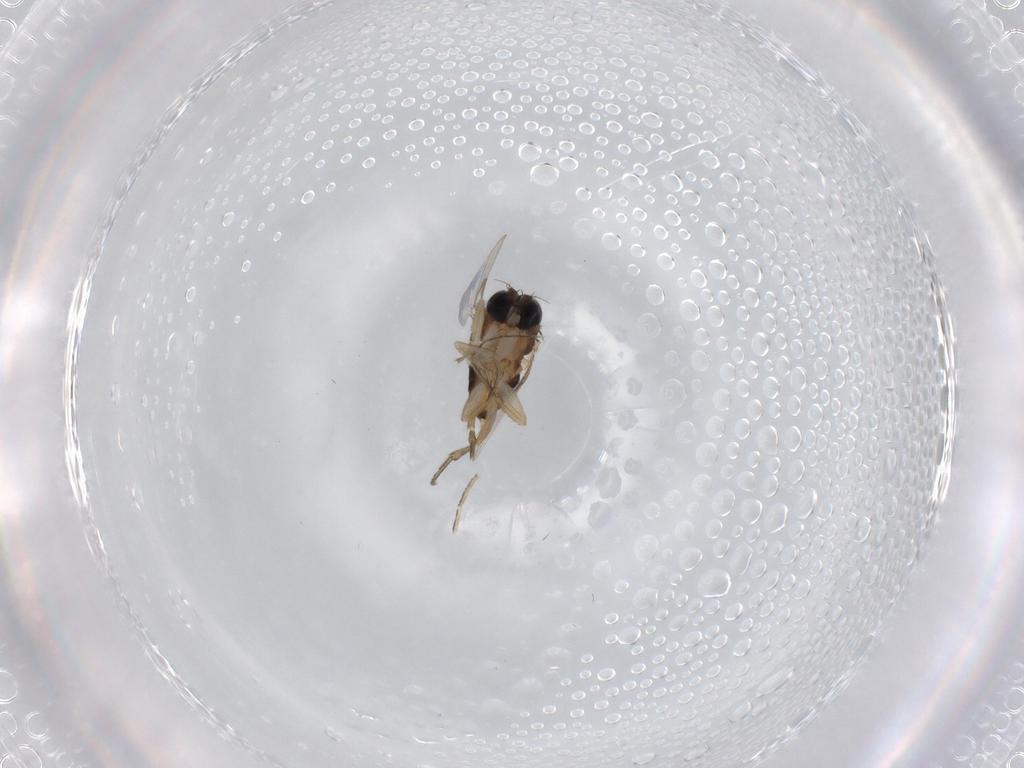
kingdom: Animalia
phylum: Arthropoda
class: Insecta
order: Diptera
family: Phoridae
